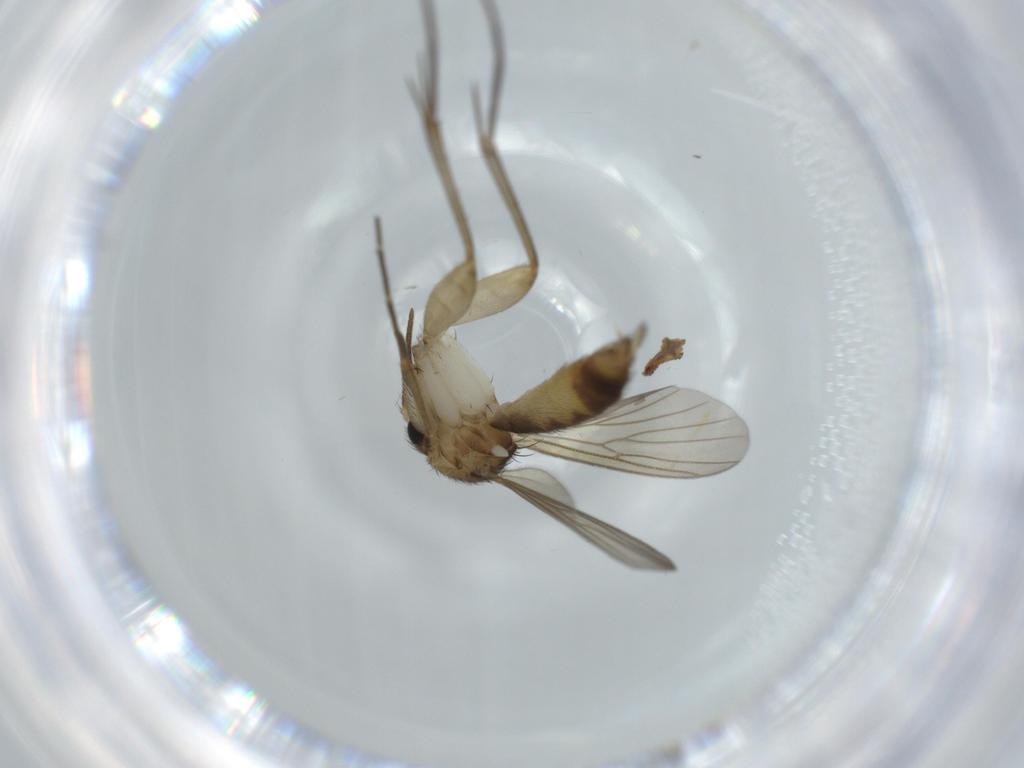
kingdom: Animalia
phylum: Arthropoda
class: Insecta
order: Diptera
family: Mycetophilidae
